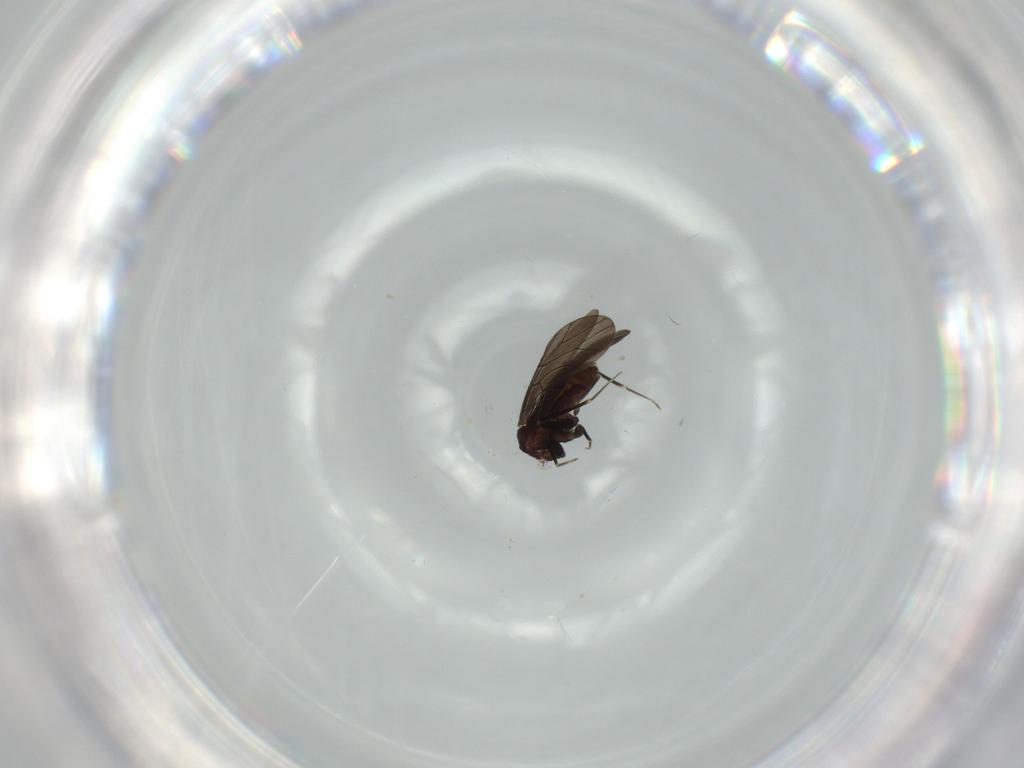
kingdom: Animalia
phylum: Arthropoda
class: Insecta
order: Psocodea
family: Lepidopsocidae
